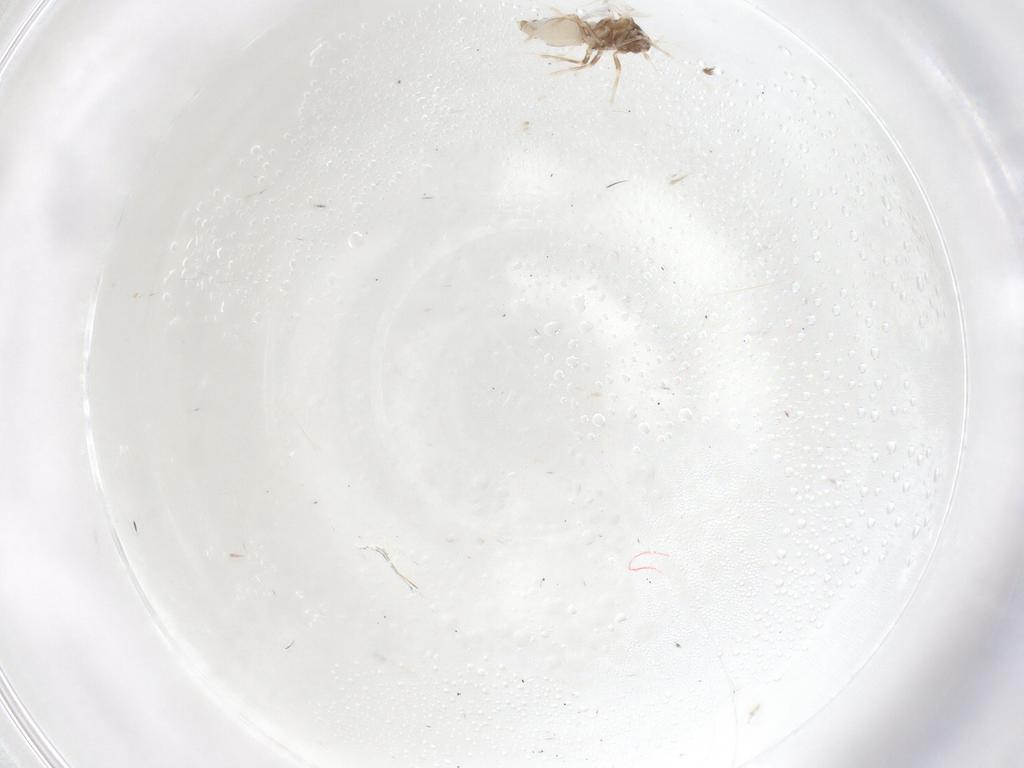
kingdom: Animalia
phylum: Arthropoda
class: Insecta
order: Hemiptera
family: Aleyrodidae
